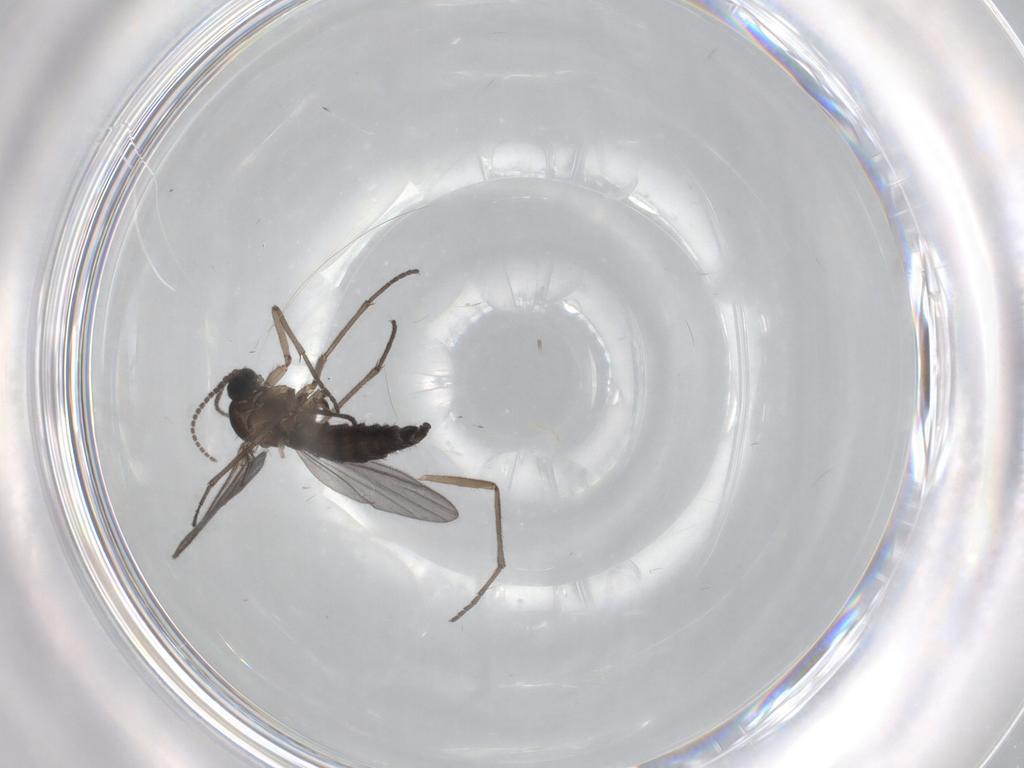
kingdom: Animalia
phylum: Arthropoda
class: Insecta
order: Diptera
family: Sciaridae
